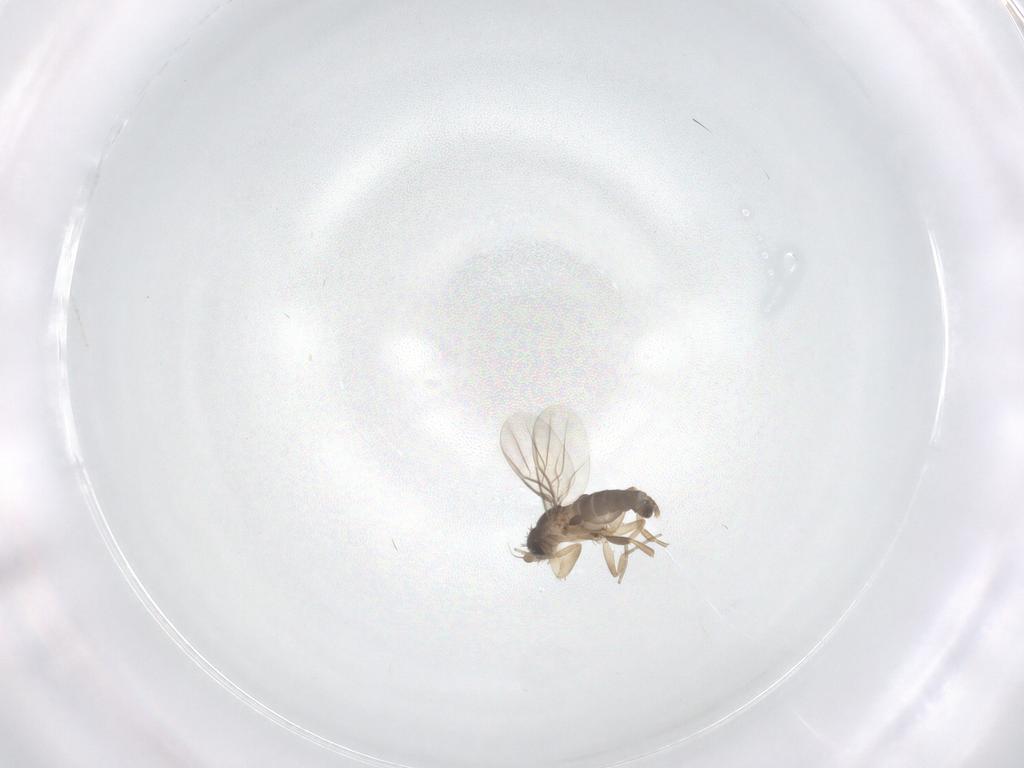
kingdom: Animalia
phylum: Arthropoda
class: Insecta
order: Diptera
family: Phoridae
